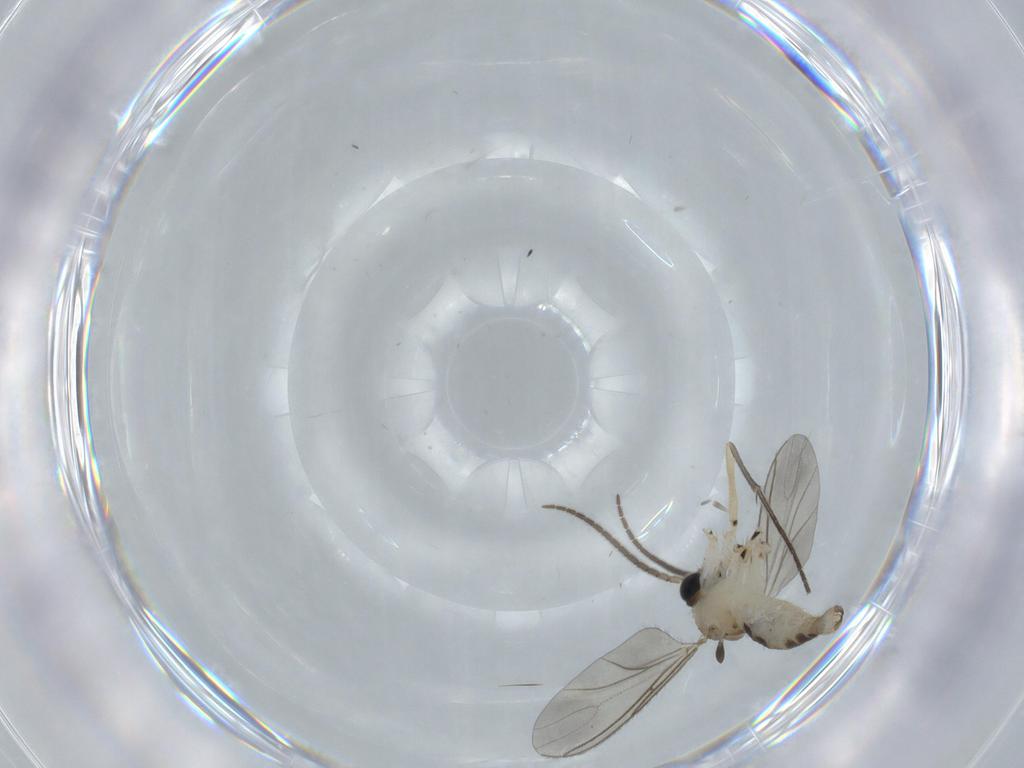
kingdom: Animalia
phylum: Arthropoda
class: Insecta
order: Diptera
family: Sciaridae
